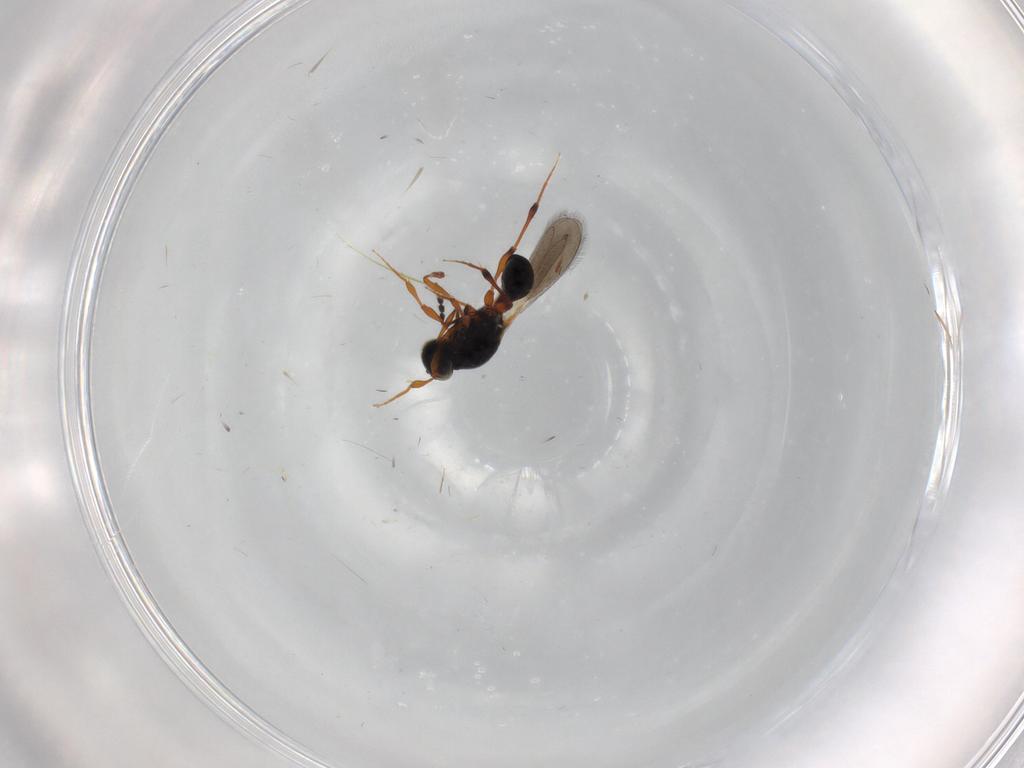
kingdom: Animalia
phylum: Arthropoda
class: Insecta
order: Hymenoptera
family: Platygastridae
